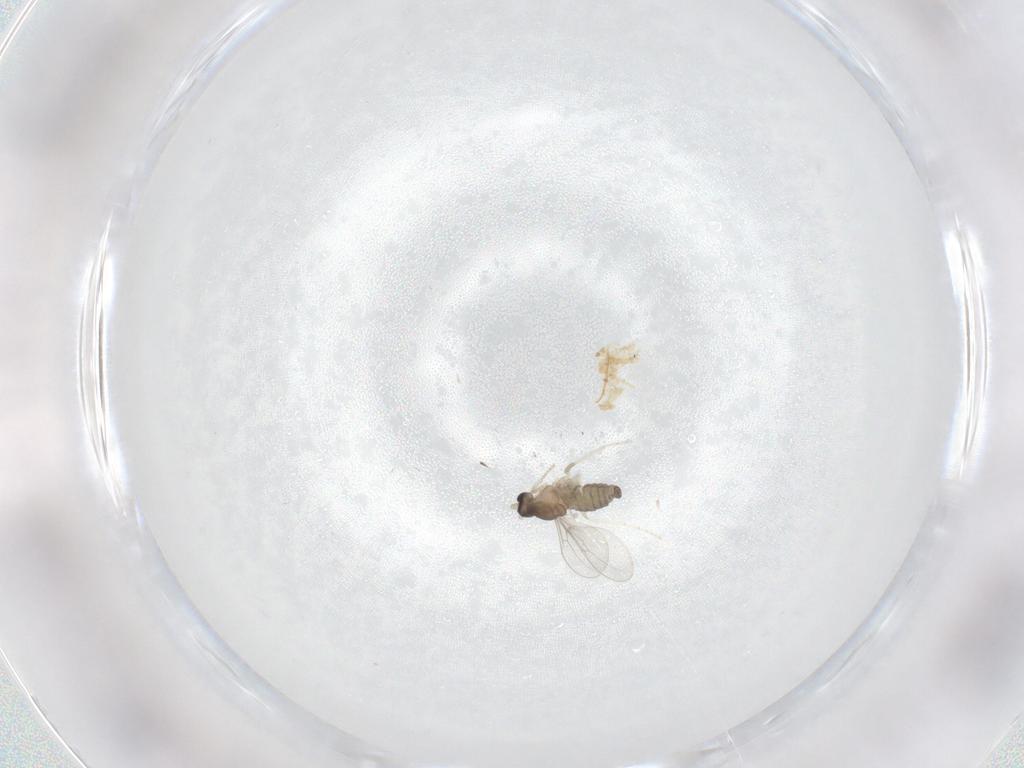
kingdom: Animalia
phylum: Arthropoda
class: Insecta
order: Diptera
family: Cecidomyiidae
